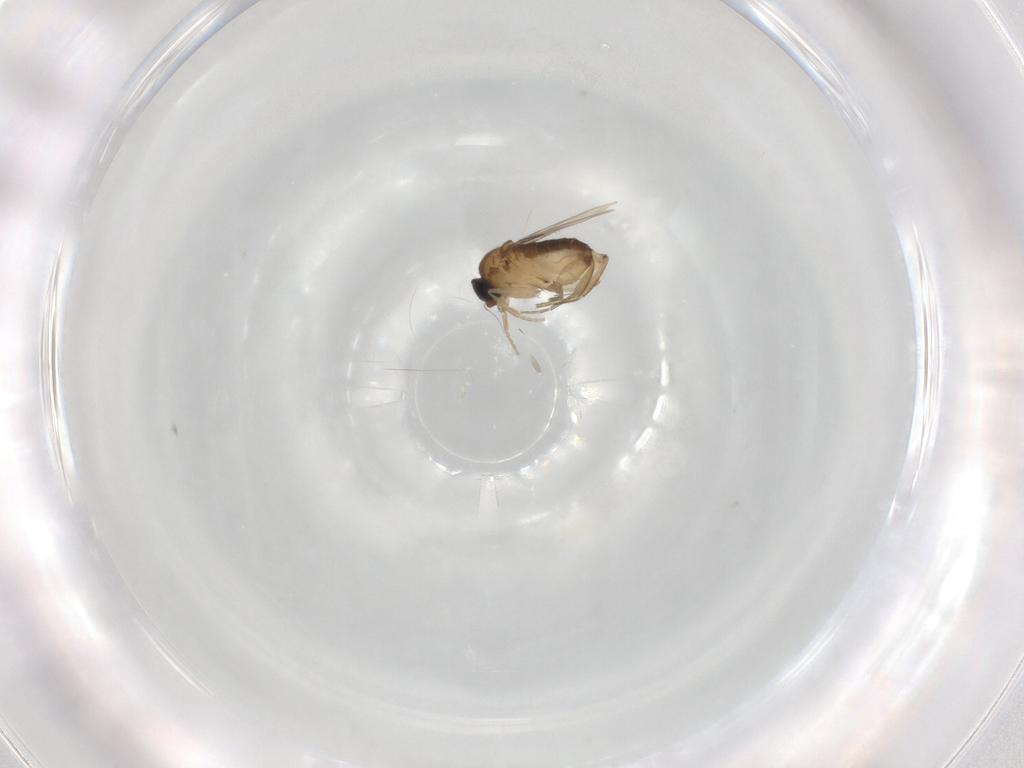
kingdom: Animalia
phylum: Arthropoda
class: Insecta
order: Diptera
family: Phoridae
